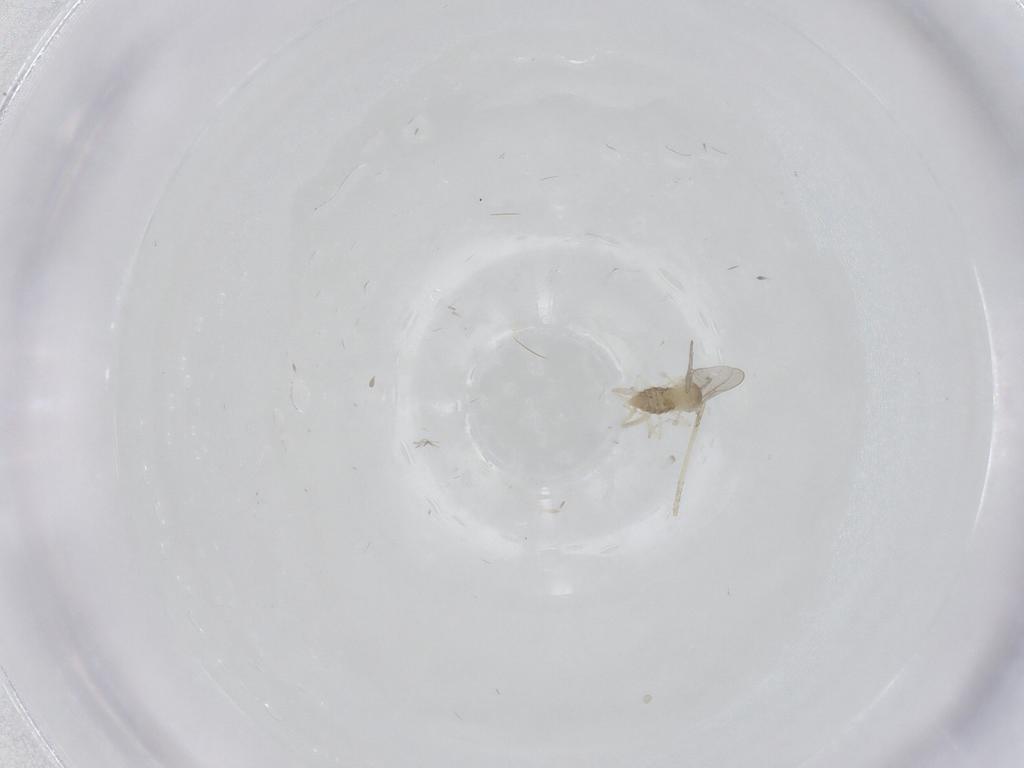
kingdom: Animalia
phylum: Arthropoda
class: Insecta
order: Diptera
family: Cecidomyiidae
